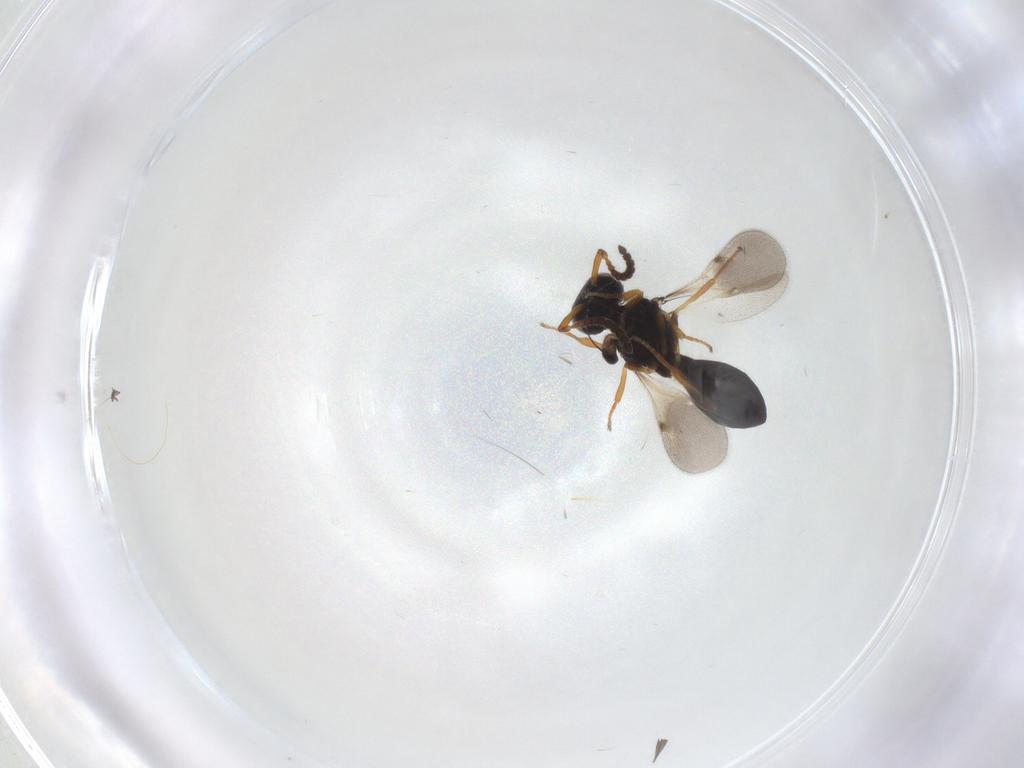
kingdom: Animalia
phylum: Arthropoda
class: Insecta
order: Hymenoptera
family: Scelionidae
